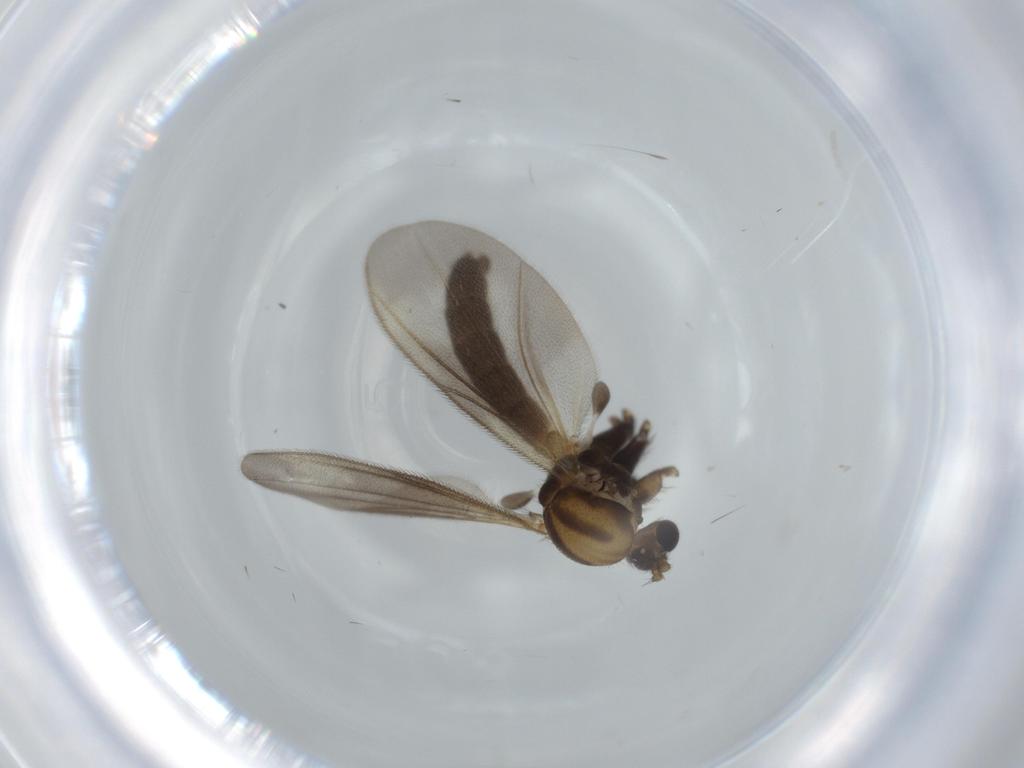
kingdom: Animalia
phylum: Arthropoda
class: Insecta
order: Diptera
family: Mycetophilidae
